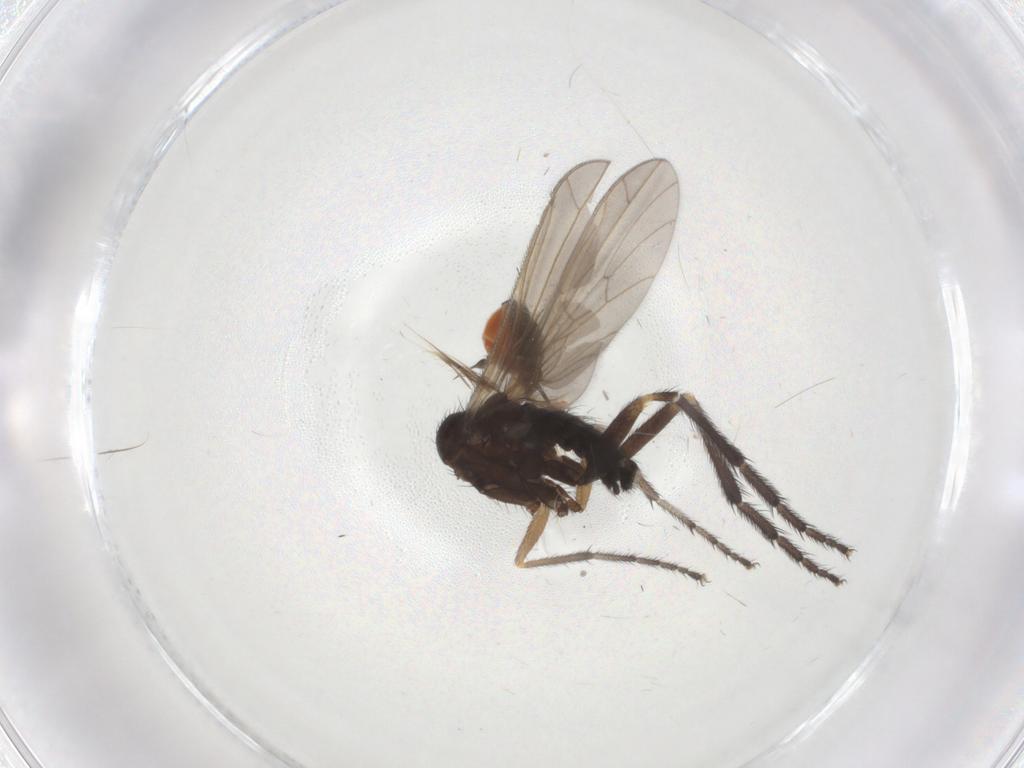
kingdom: Animalia
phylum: Arthropoda
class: Insecta
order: Diptera
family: Empididae
